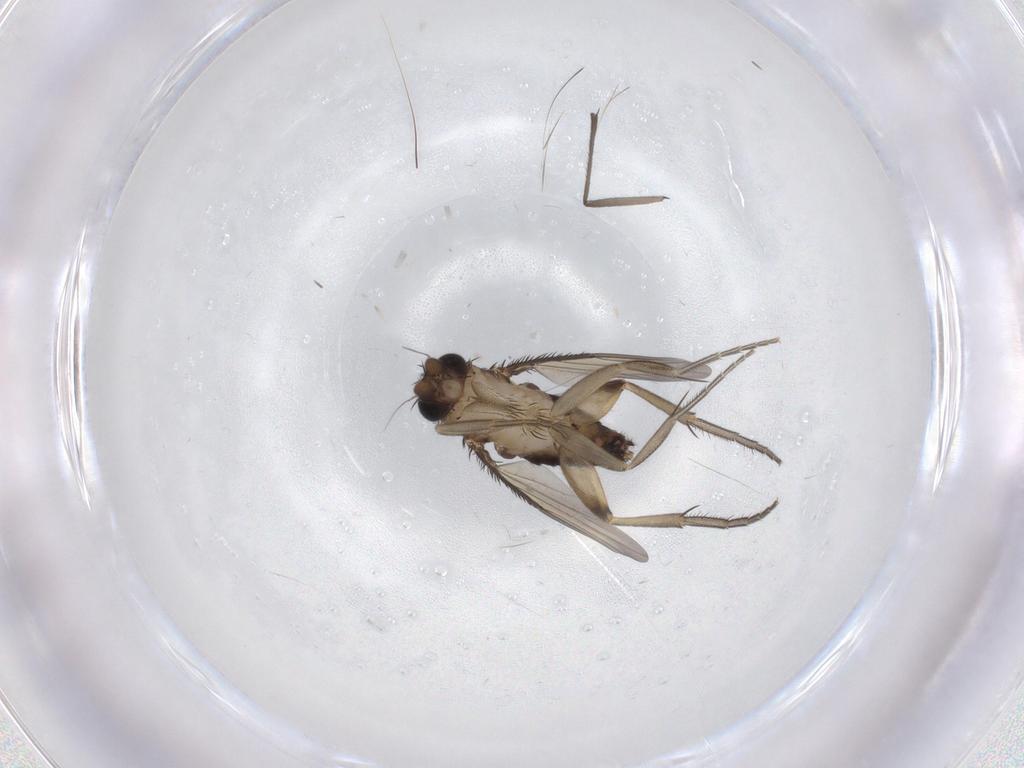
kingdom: Animalia
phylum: Arthropoda
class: Insecta
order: Diptera
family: Phoridae
